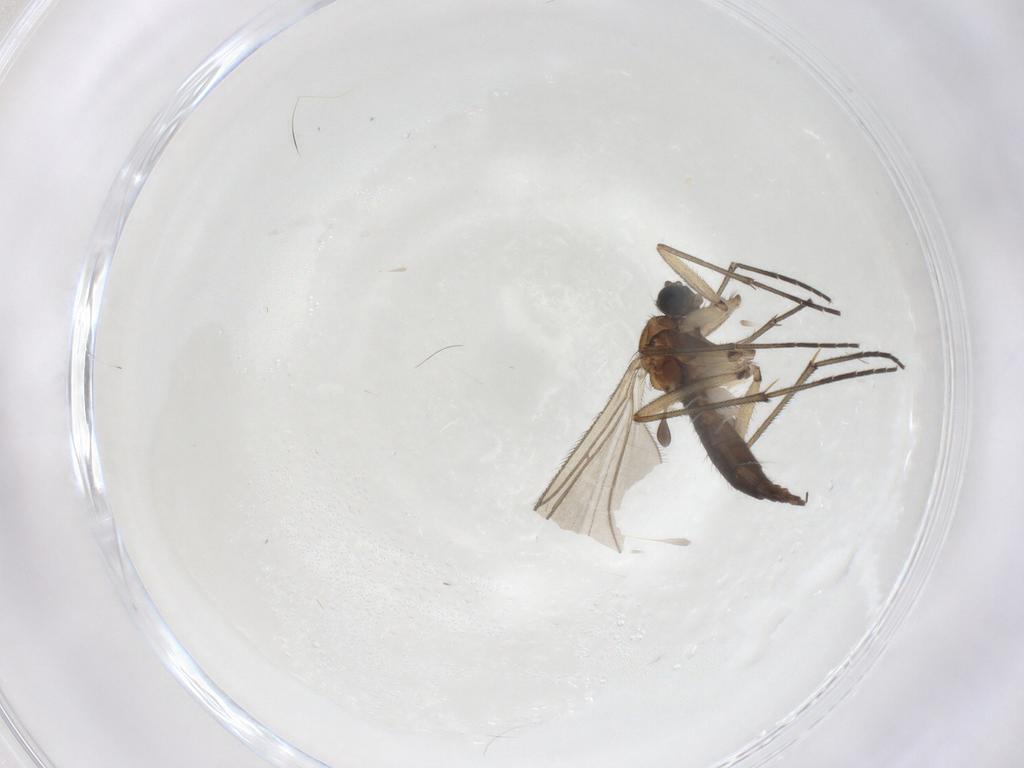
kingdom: Animalia
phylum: Arthropoda
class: Insecta
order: Diptera
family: Sciaridae
